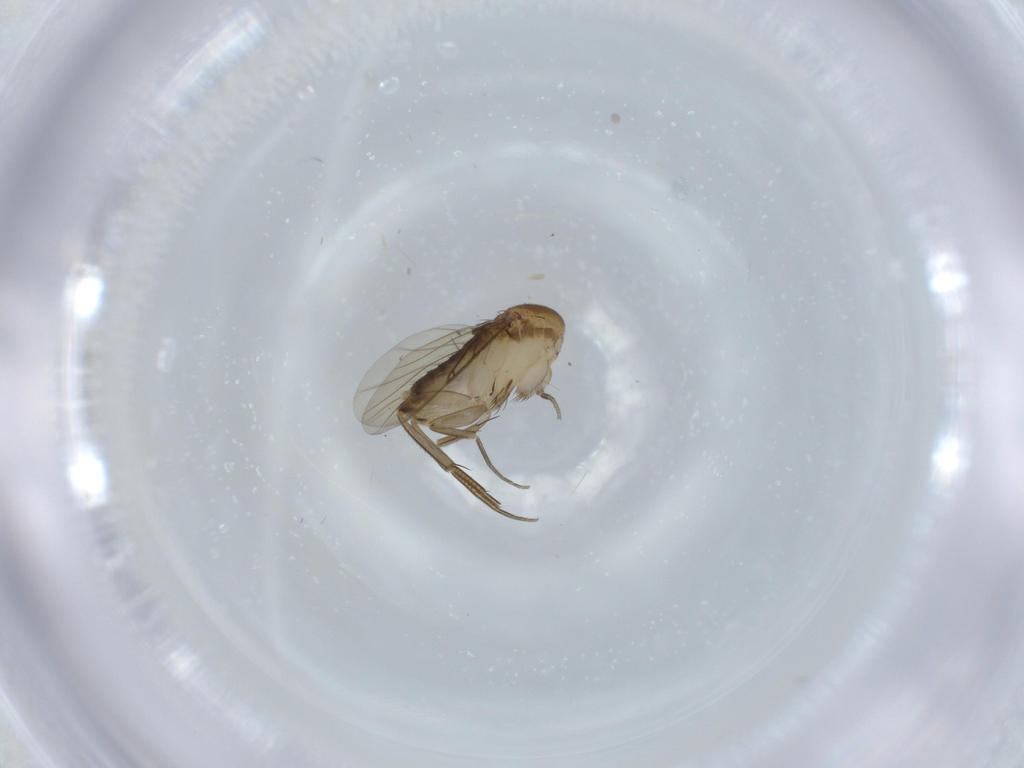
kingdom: Animalia
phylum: Arthropoda
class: Insecta
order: Diptera
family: Phoridae
